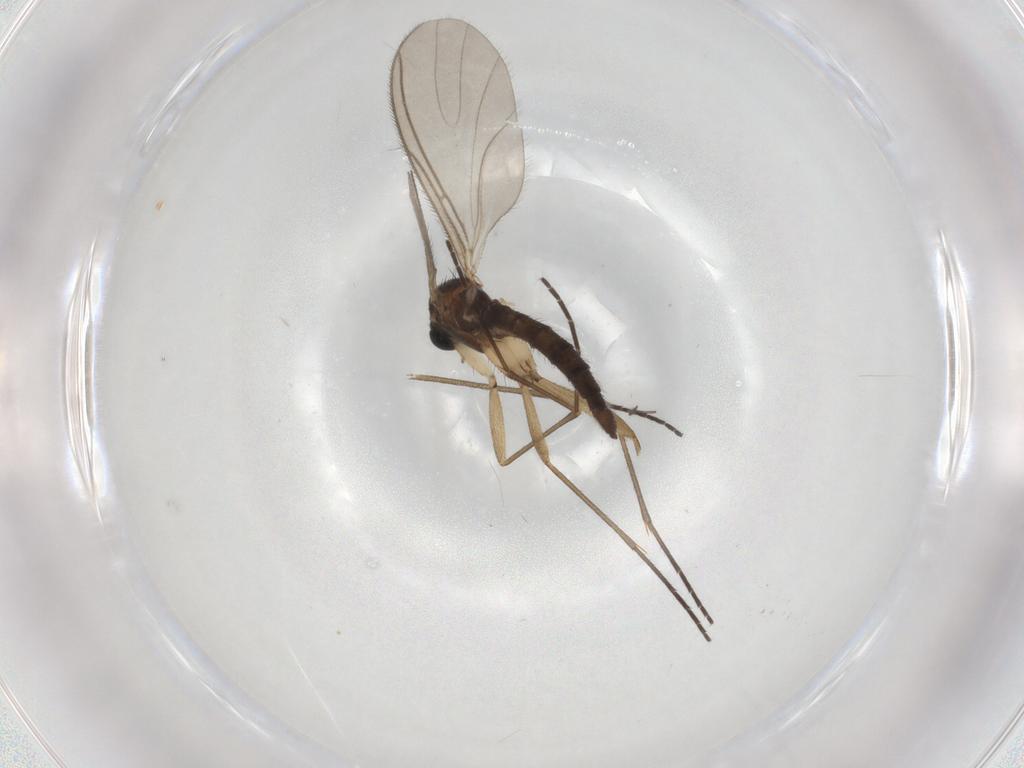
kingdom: Animalia
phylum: Arthropoda
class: Insecta
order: Diptera
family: Sciaridae
